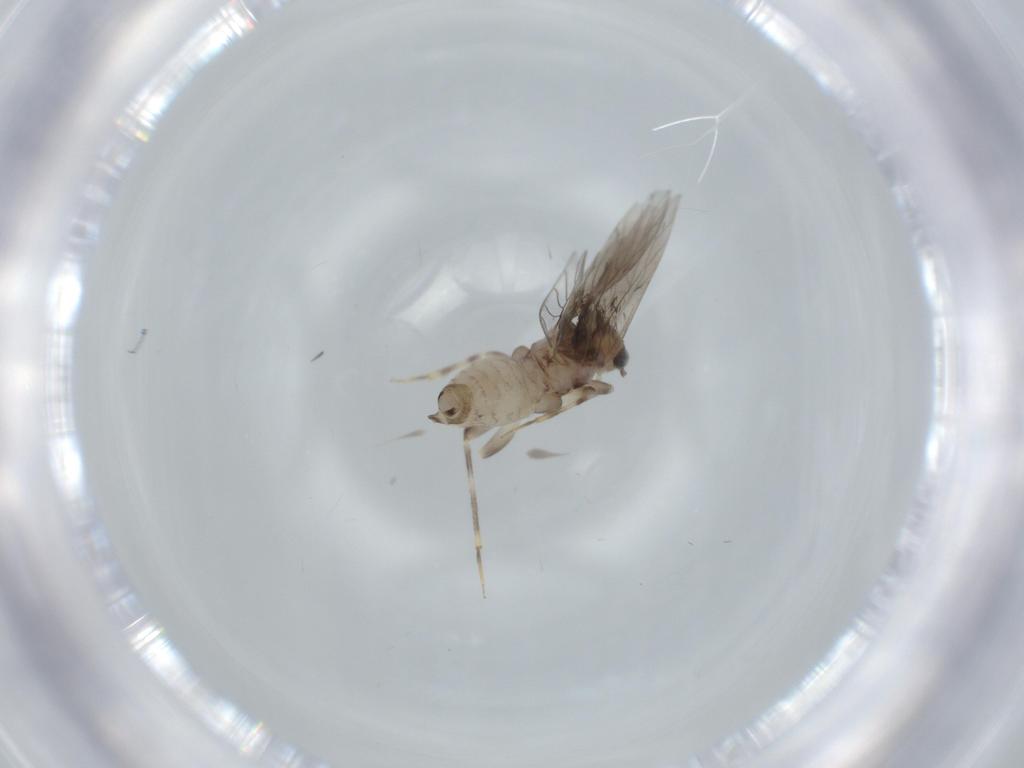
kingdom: Animalia
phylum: Arthropoda
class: Insecta
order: Psocodea
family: Lepidopsocidae
